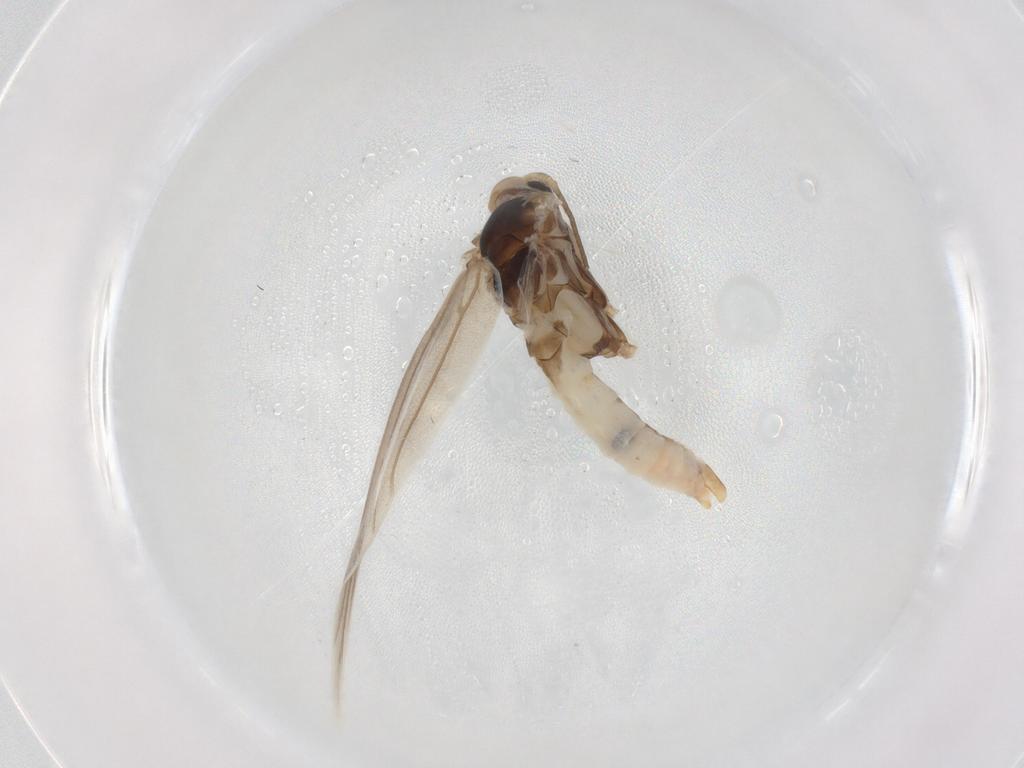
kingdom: Animalia
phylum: Arthropoda
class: Insecta
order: Lepidoptera
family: Elachistidae
